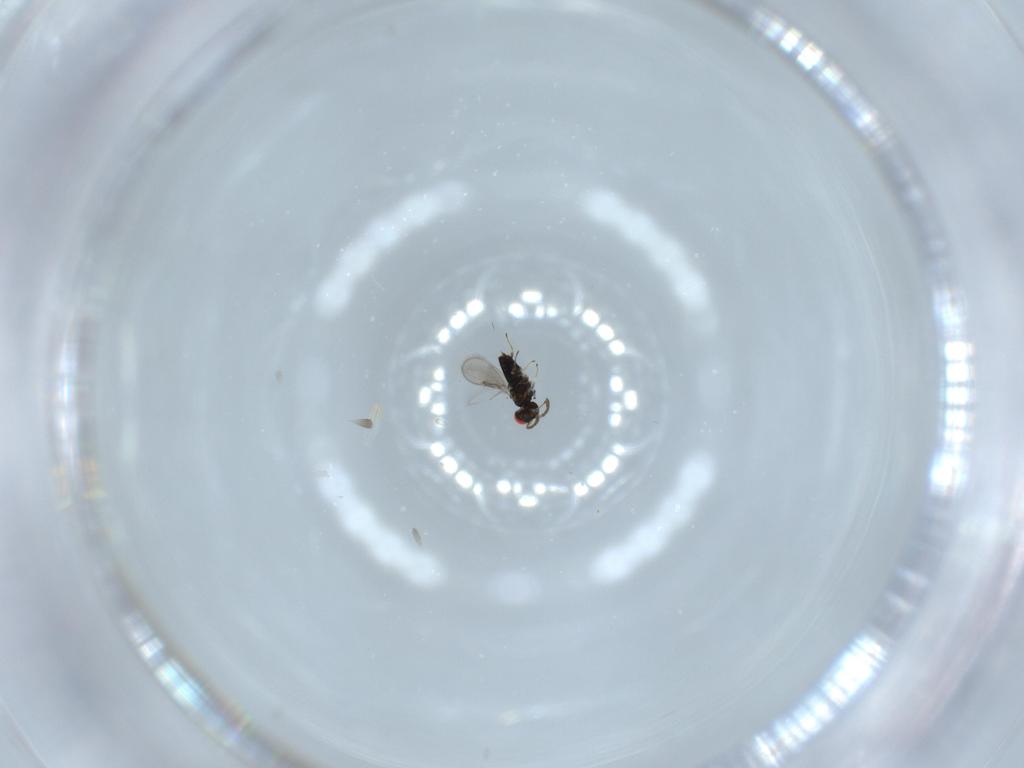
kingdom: Animalia
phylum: Arthropoda
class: Insecta
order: Hymenoptera
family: Trichogrammatidae
